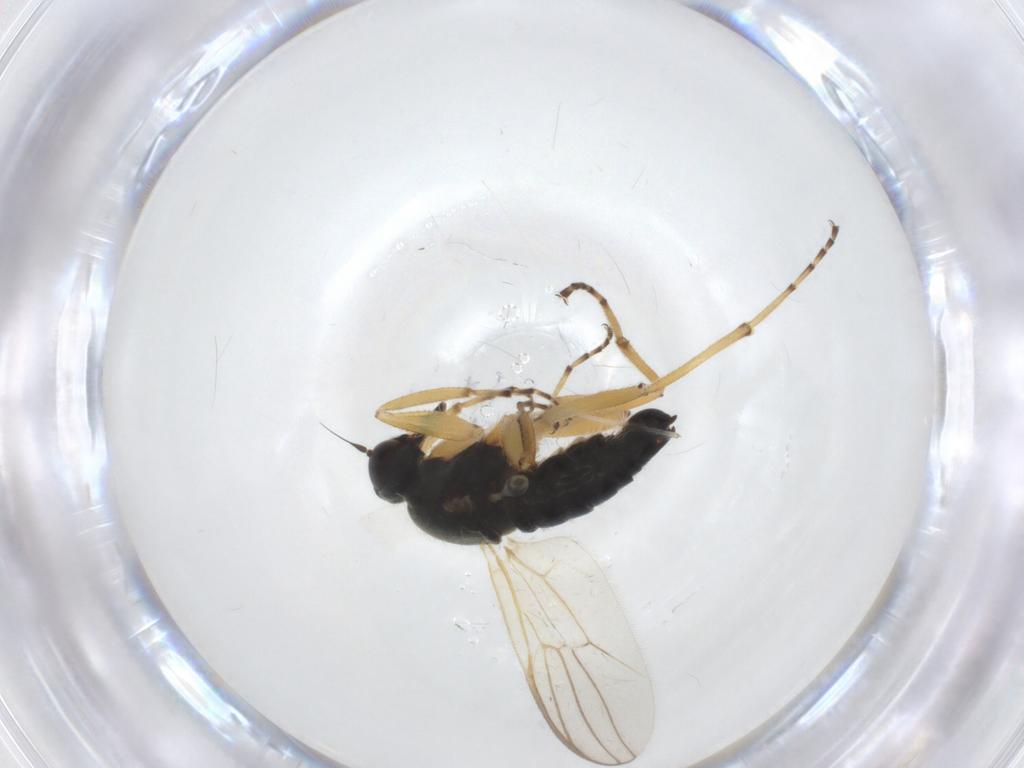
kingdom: Animalia
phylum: Arthropoda
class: Insecta
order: Diptera
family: Hybotidae
